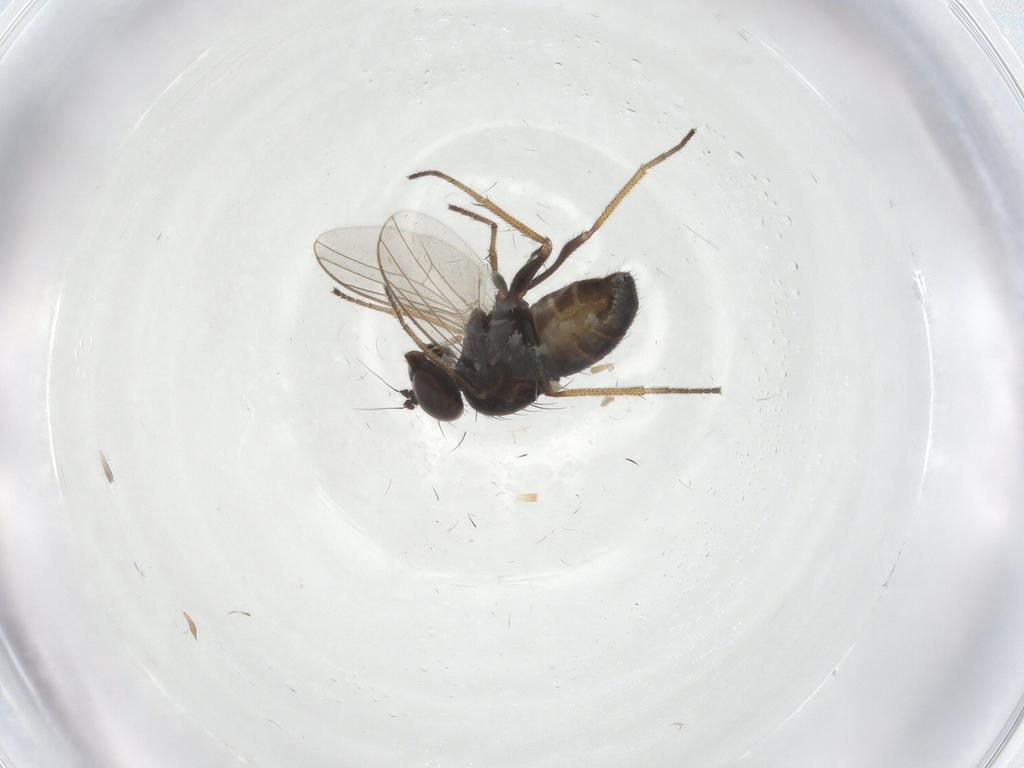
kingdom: Animalia
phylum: Arthropoda
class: Insecta
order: Diptera
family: Dolichopodidae
